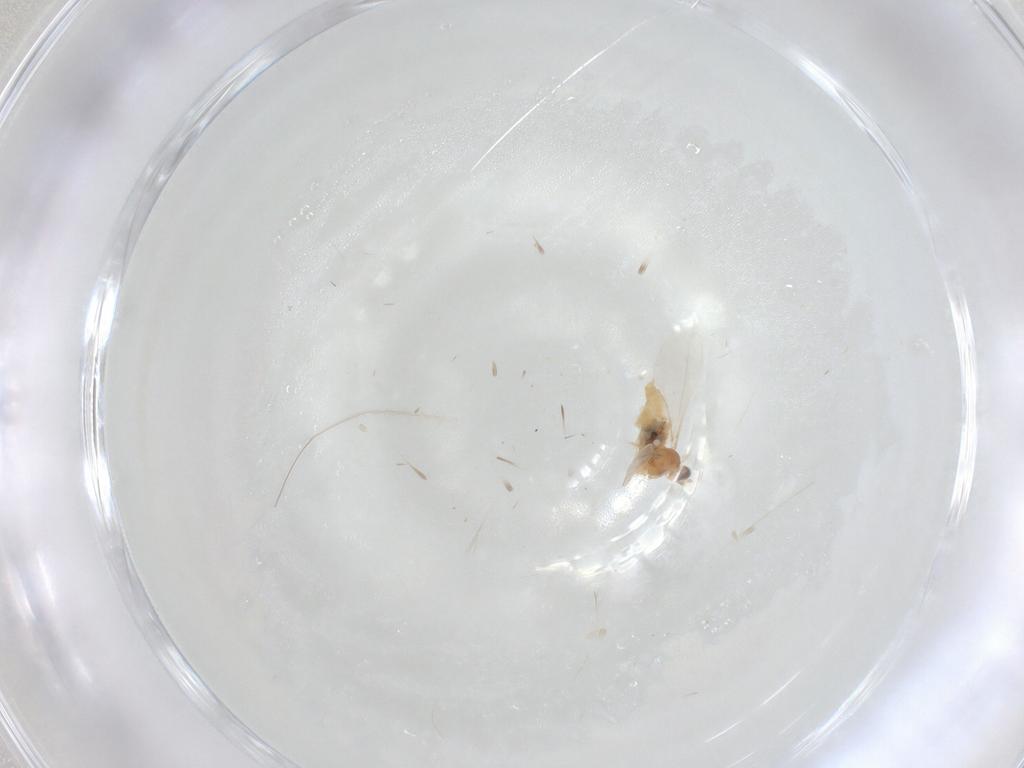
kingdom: Animalia
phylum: Arthropoda
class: Insecta
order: Diptera
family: Cecidomyiidae
